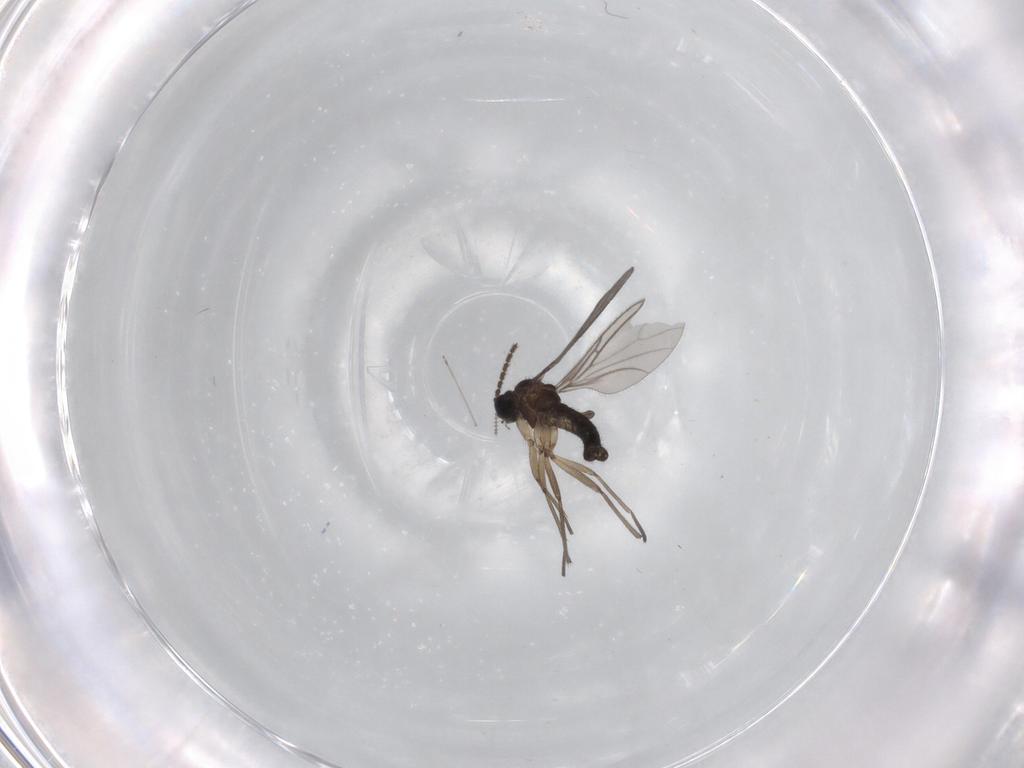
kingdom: Animalia
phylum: Arthropoda
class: Insecta
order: Diptera
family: Sciaridae
